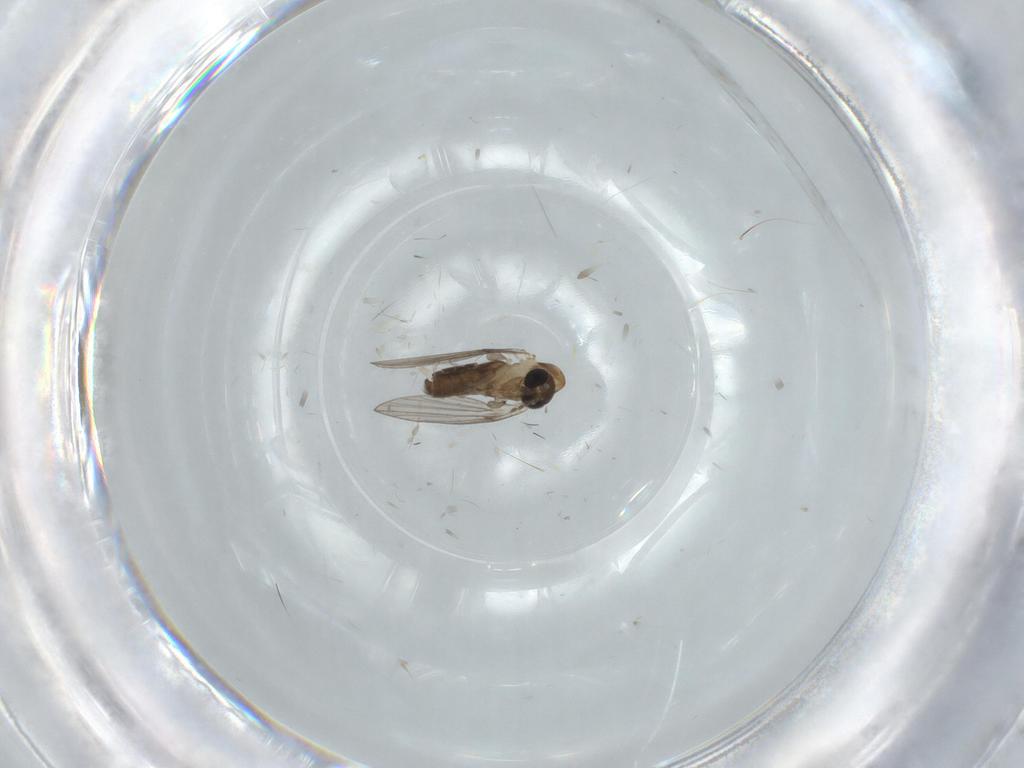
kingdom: Animalia
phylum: Arthropoda
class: Insecta
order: Diptera
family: Psychodidae
